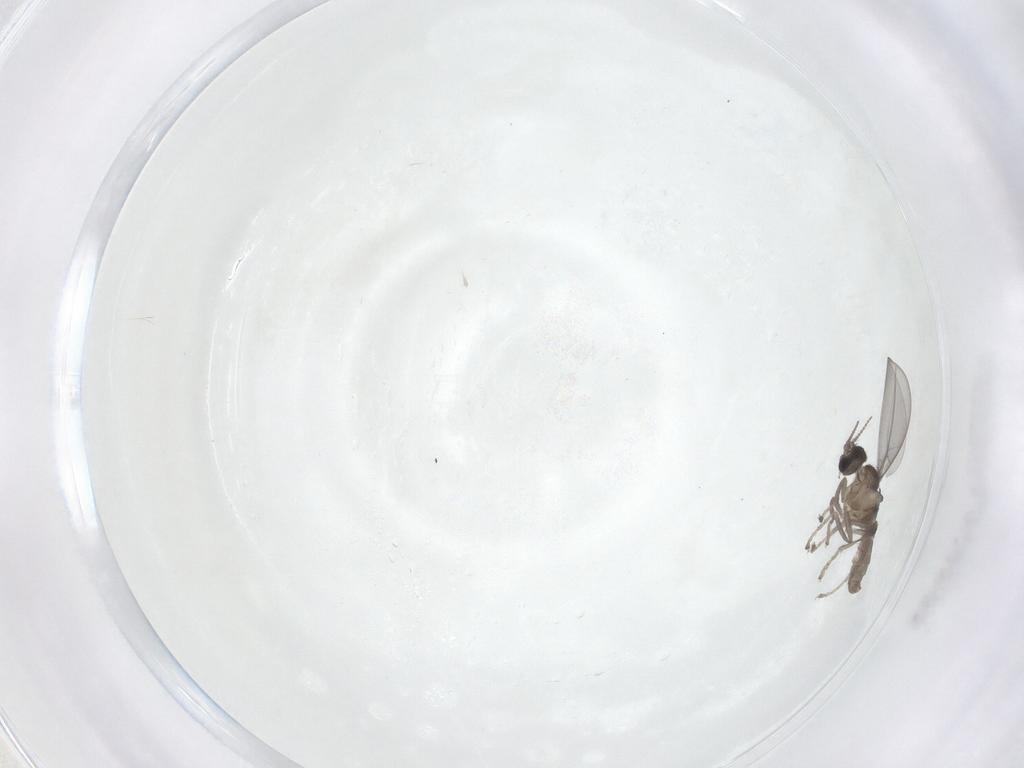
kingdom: Animalia
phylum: Arthropoda
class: Insecta
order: Diptera
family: Cecidomyiidae
